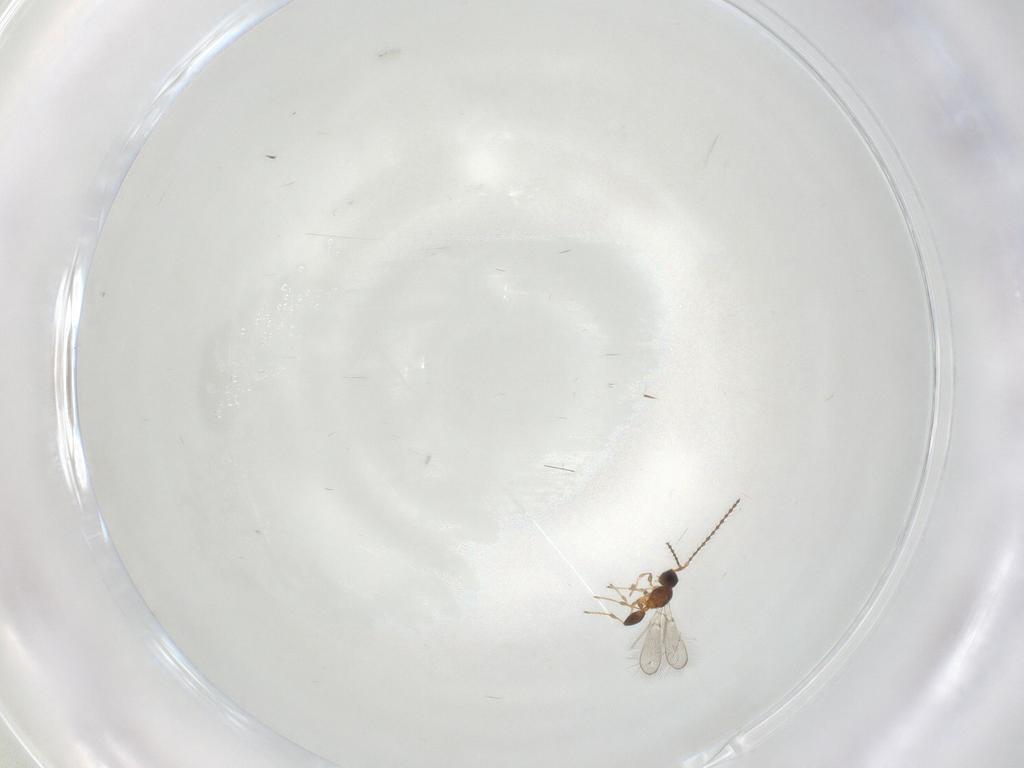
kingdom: Animalia
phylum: Arthropoda
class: Insecta
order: Hymenoptera
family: Diapriidae
